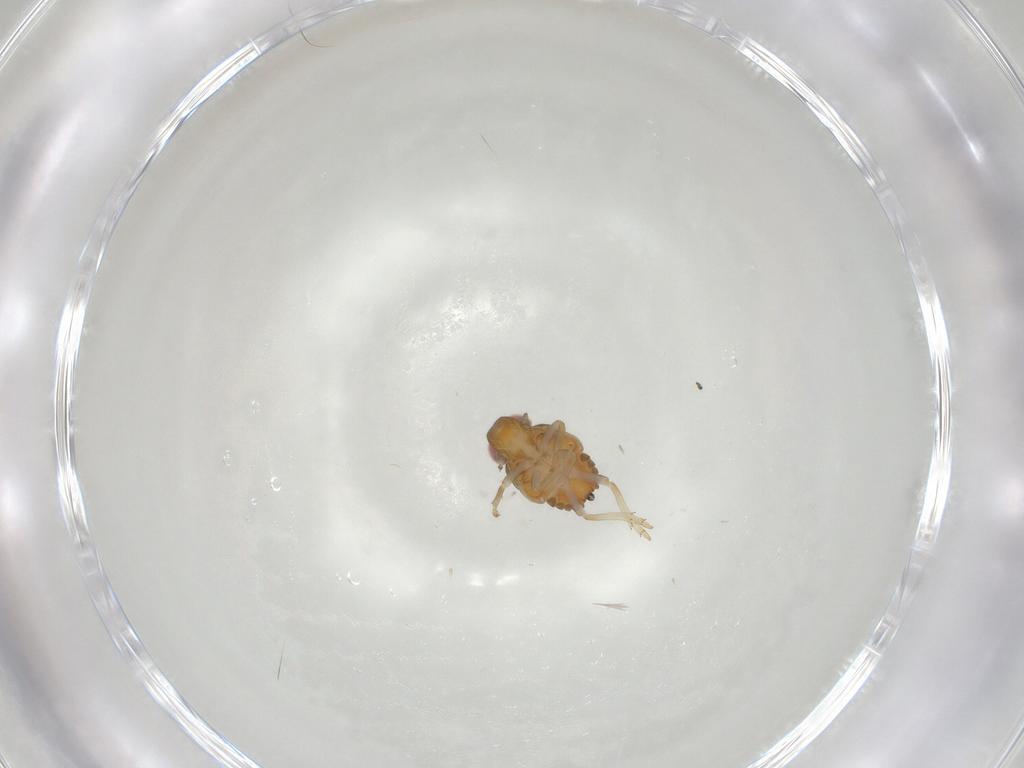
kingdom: Animalia
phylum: Arthropoda
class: Insecta
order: Hemiptera
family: Issidae
